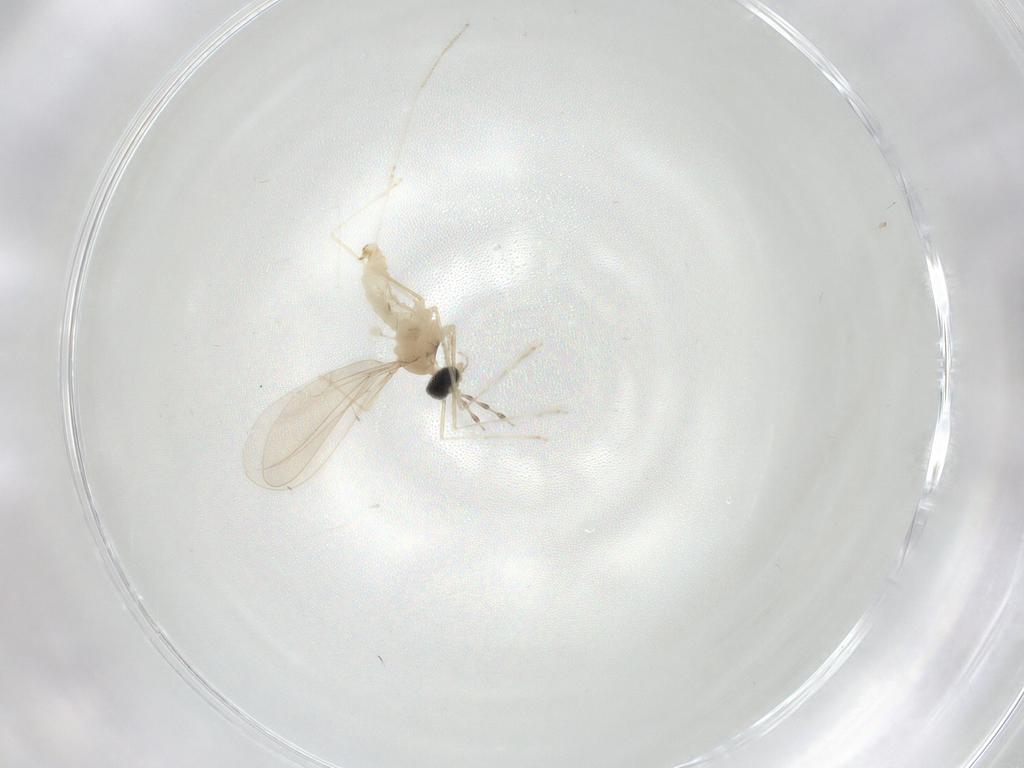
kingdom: Animalia
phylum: Arthropoda
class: Insecta
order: Diptera
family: Cecidomyiidae
